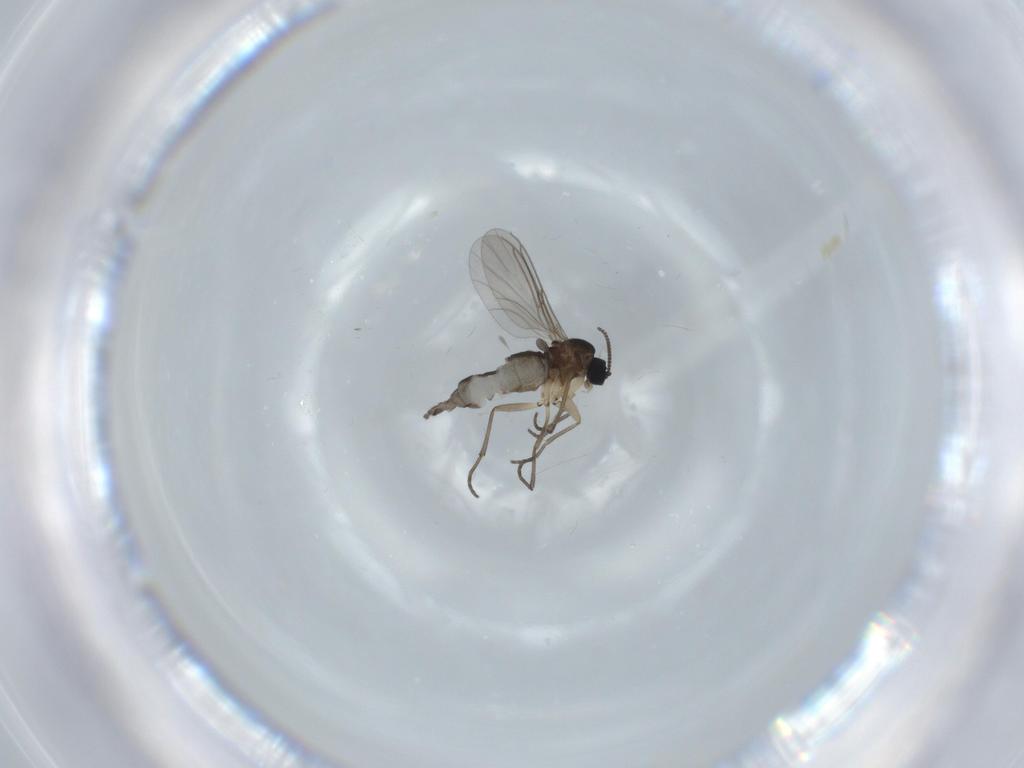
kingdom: Animalia
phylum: Arthropoda
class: Insecta
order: Diptera
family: Sciaridae
